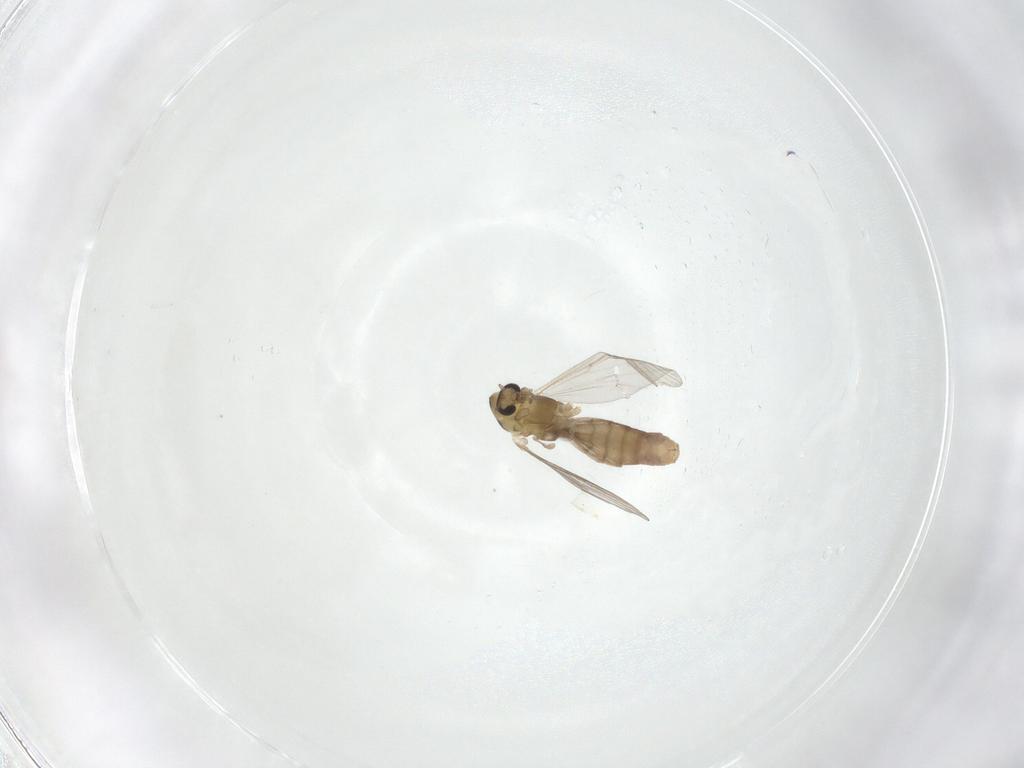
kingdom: Animalia
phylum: Arthropoda
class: Insecta
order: Diptera
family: Chironomidae
